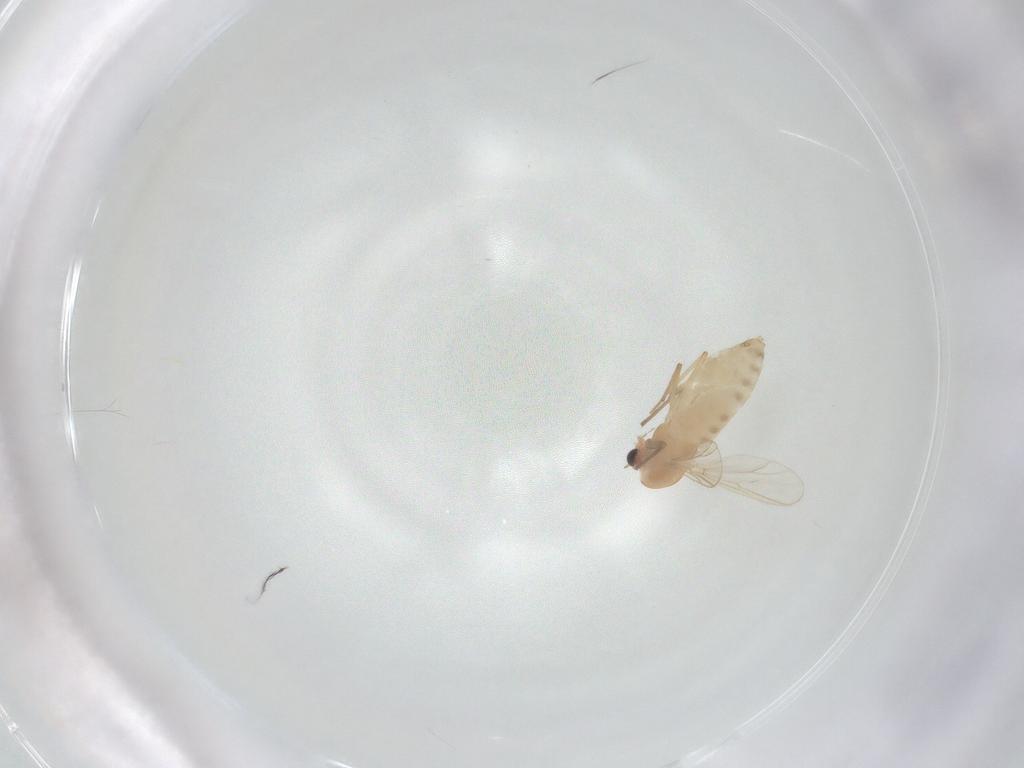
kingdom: Animalia
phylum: Arthropoda
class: Insecta
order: Diptera
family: Chironomidae
